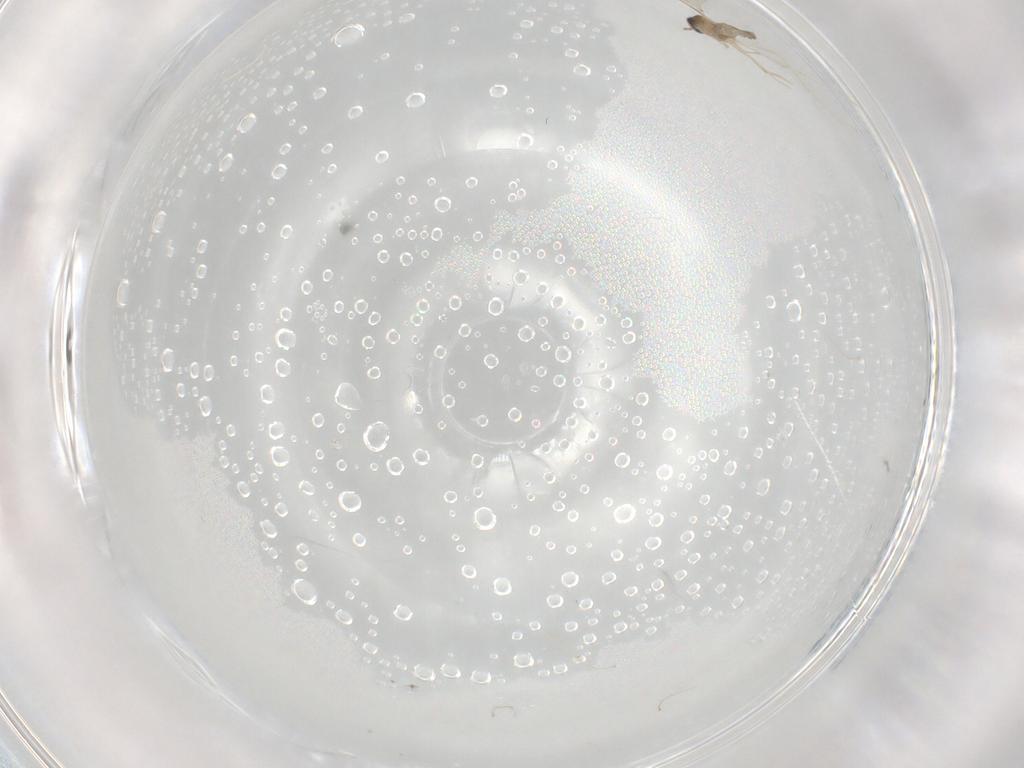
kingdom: Animalia
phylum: Arthropoda
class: Insecta
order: Diptera
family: Cecidomyiidae
